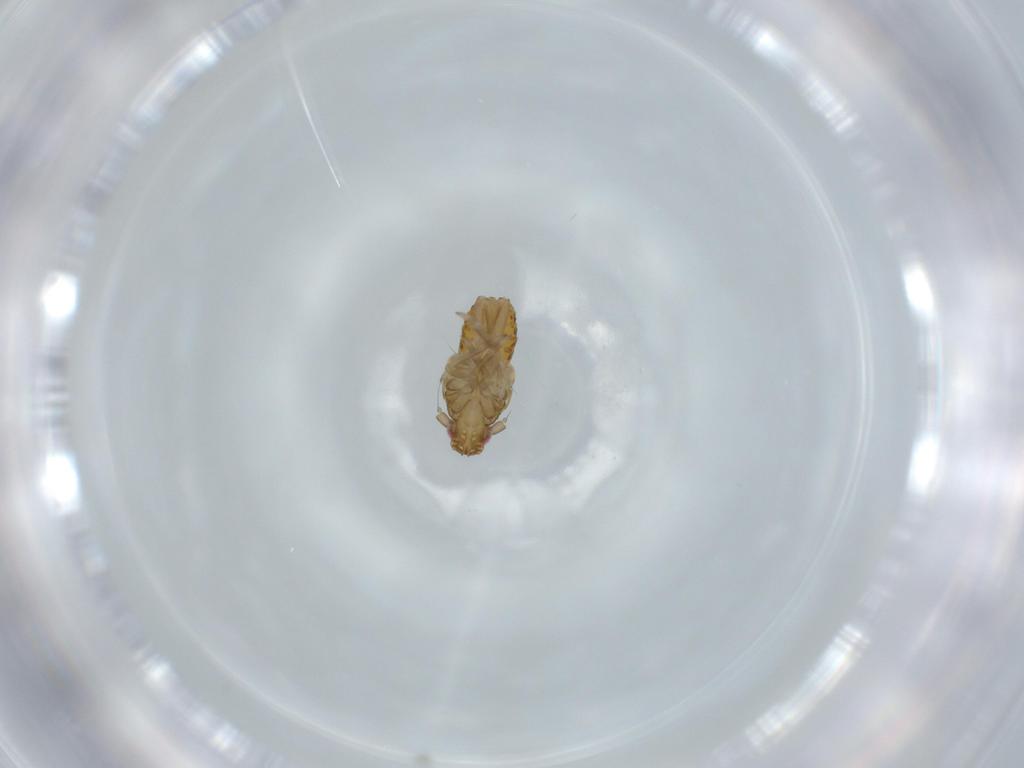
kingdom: Animalia
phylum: Arthropoda
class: Insecta
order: Hemiptera
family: Delphacidae
